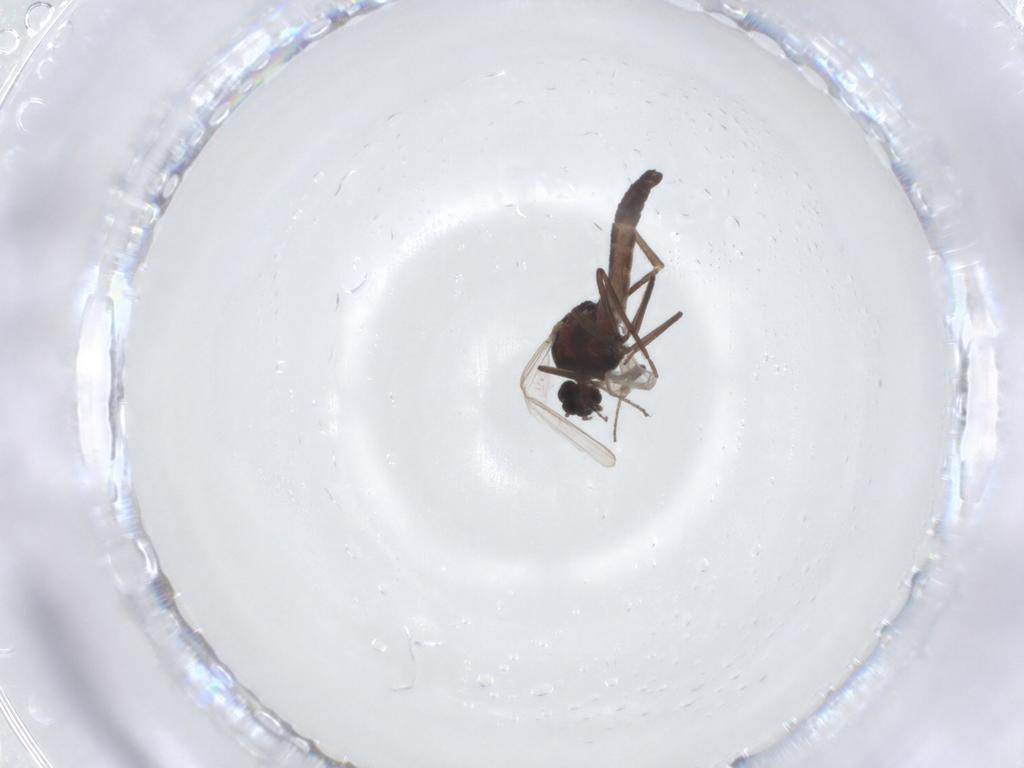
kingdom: Animalia
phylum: Arthropoda
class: Insecta
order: Diptera
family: Ceratopogonidae
